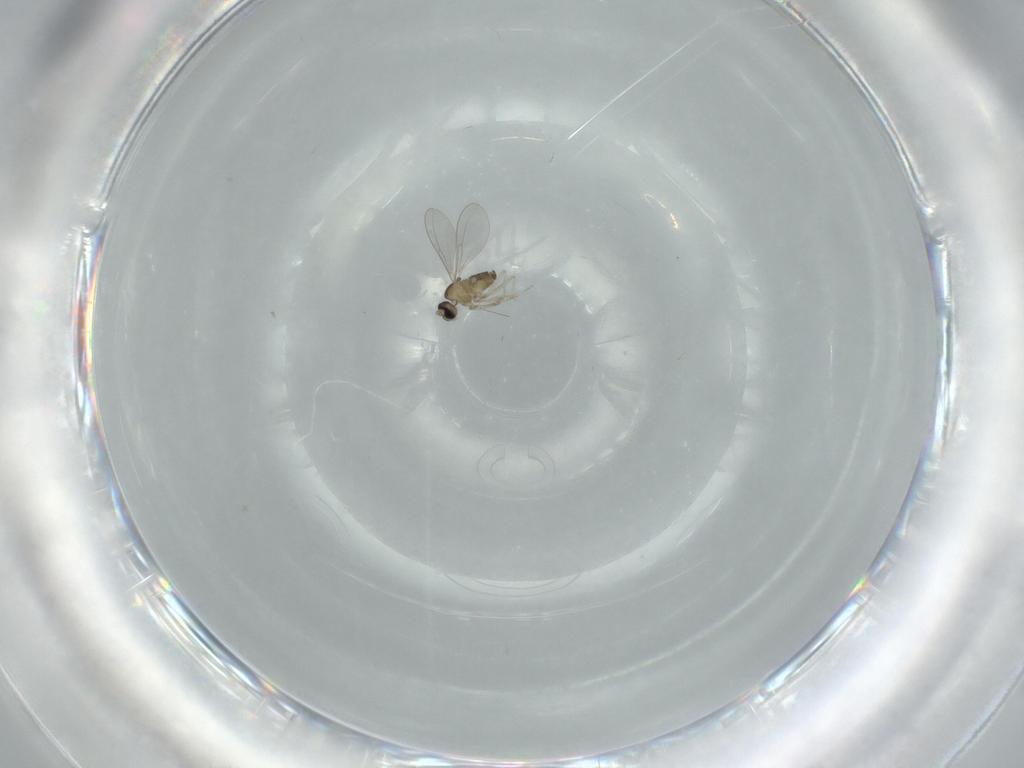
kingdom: Animalia
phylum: Arthropoda
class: Insecta
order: Diptera
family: Cecidomyiidae
